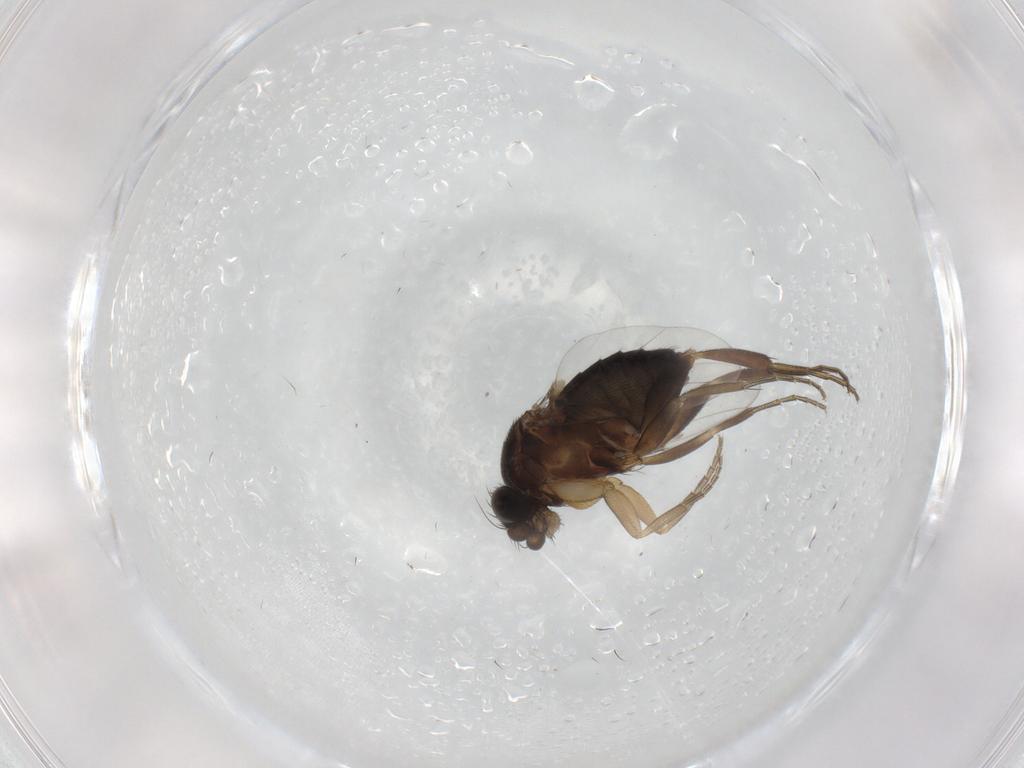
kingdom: Animalia
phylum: Arthropoda
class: Insecta
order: Diptera
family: Phoridae
